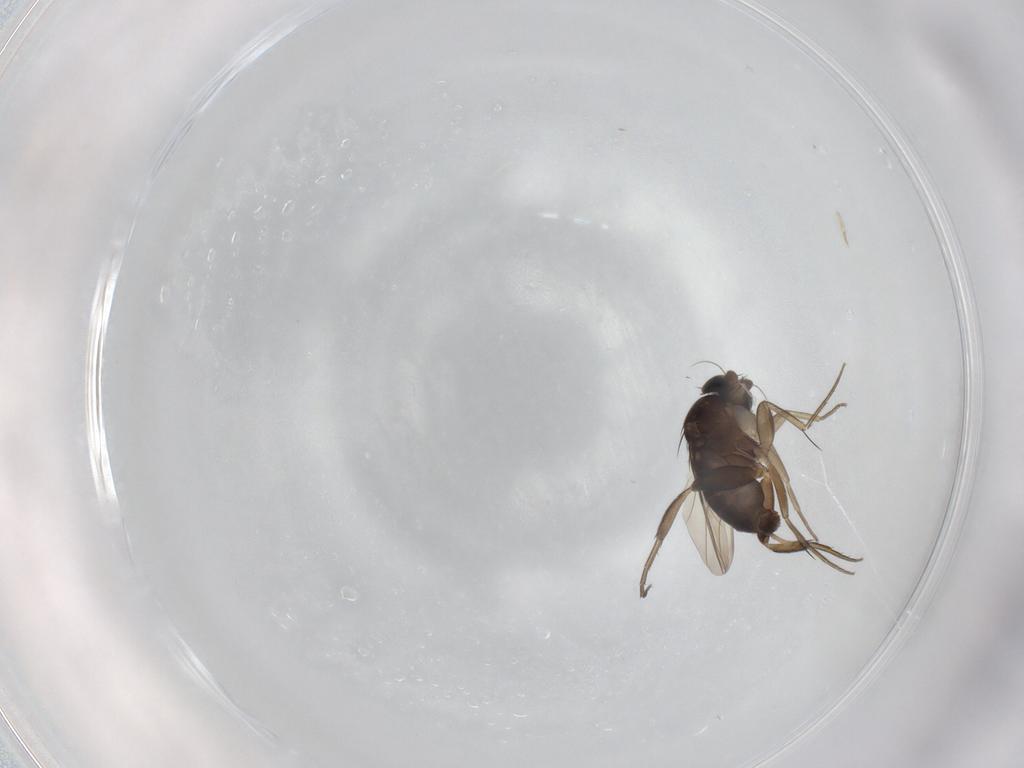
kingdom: Animalia
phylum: Arthropoda
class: Insecta
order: Diptera
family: Phoridae
